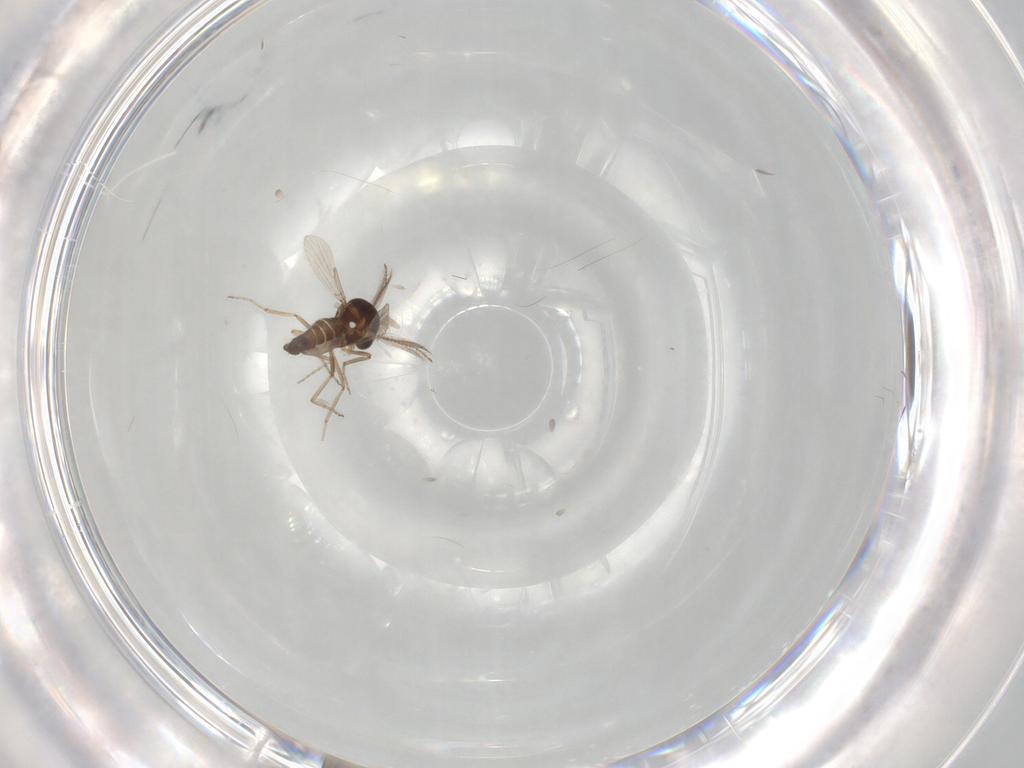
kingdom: Animalia
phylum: Arthropoda
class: Insecta
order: Diptera
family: Ceratopogonidae
